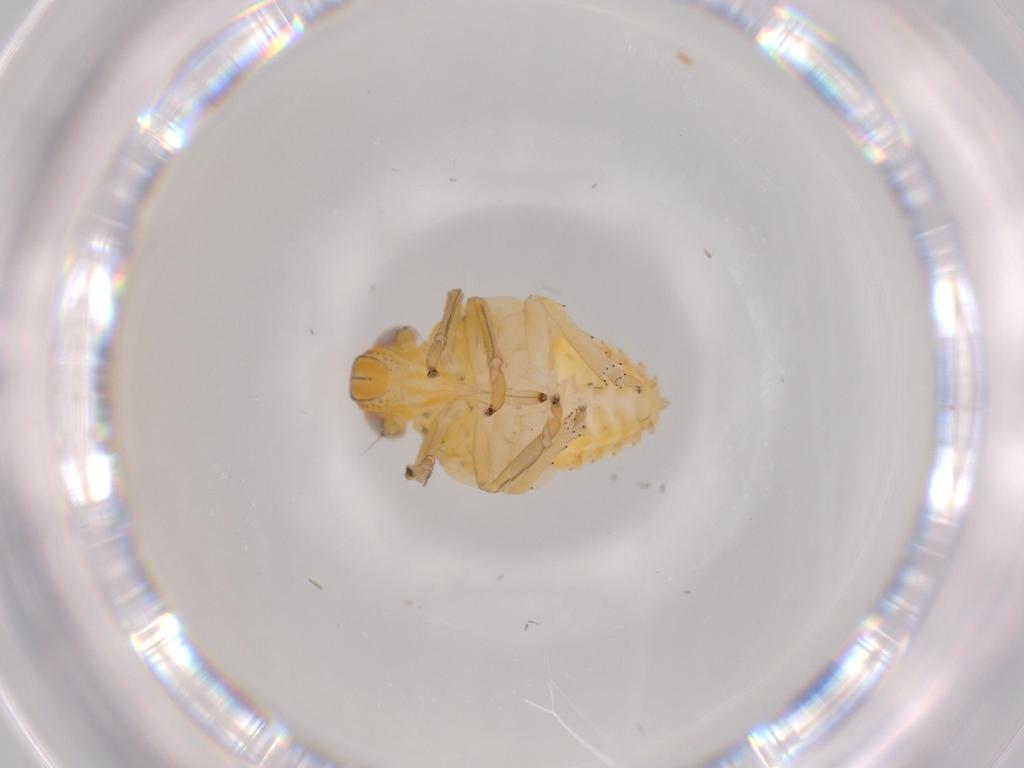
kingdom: Animalia
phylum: Arthropoda
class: Insecta
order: Hemiptera
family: Issidae
